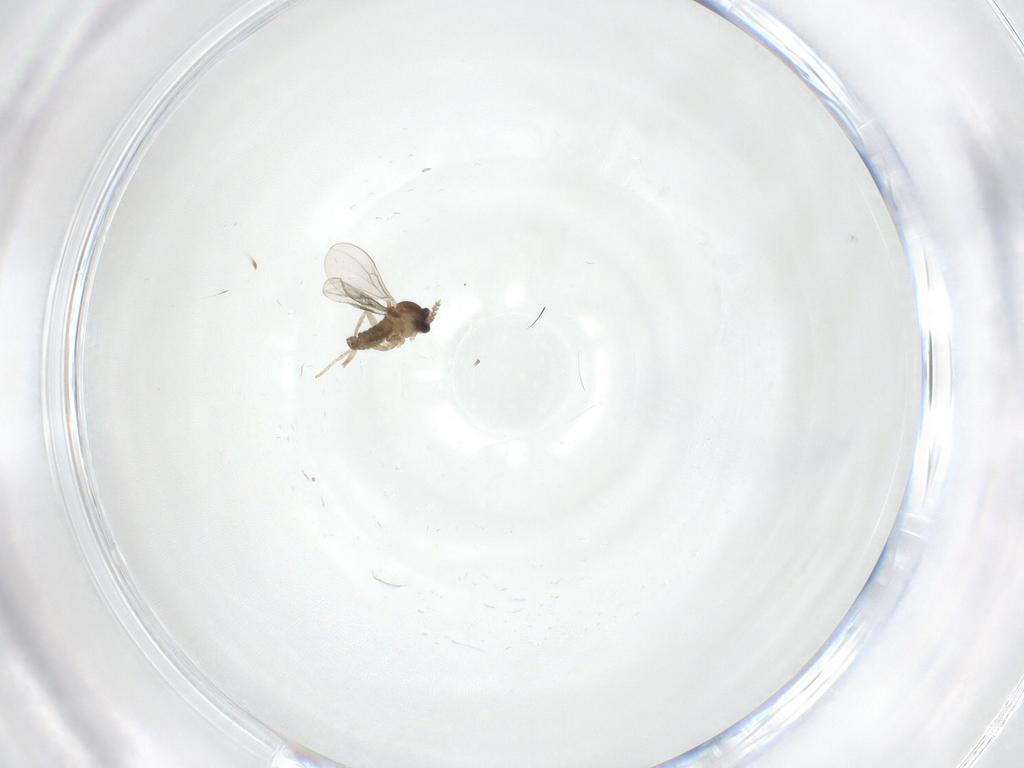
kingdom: Animalia
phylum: Arthropoda
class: Insecta
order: Diptera
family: Cecidomyiidae
